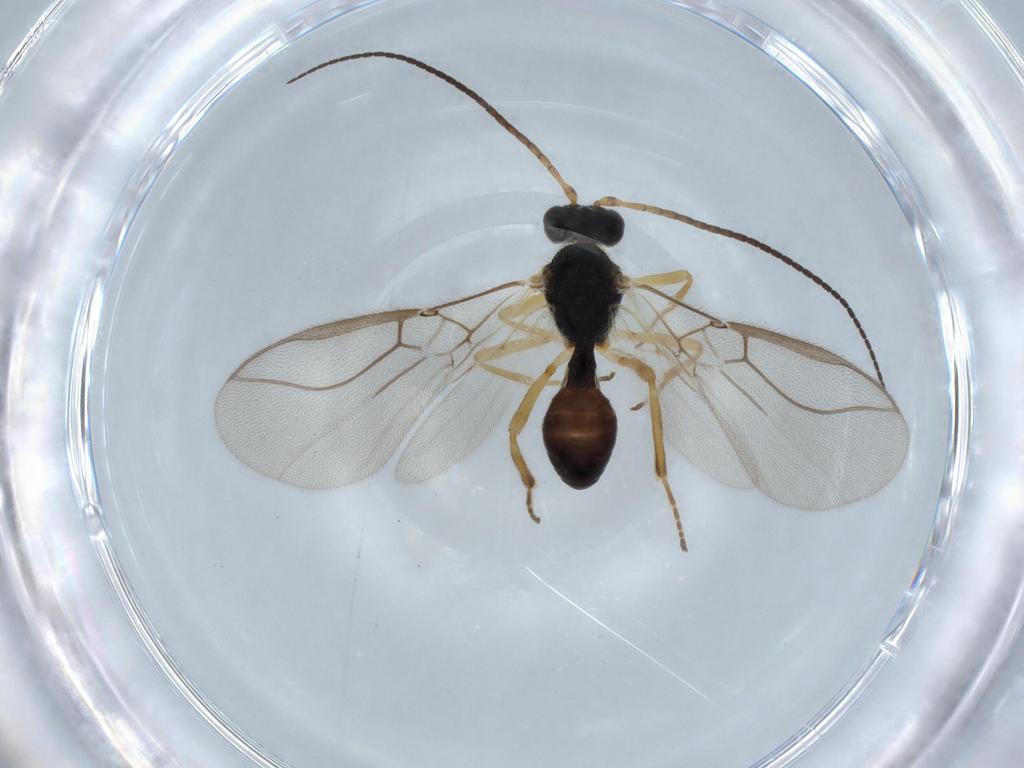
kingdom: Animalia
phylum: Arthropoda
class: Insecta
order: Hymenoptera
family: Braconidae
